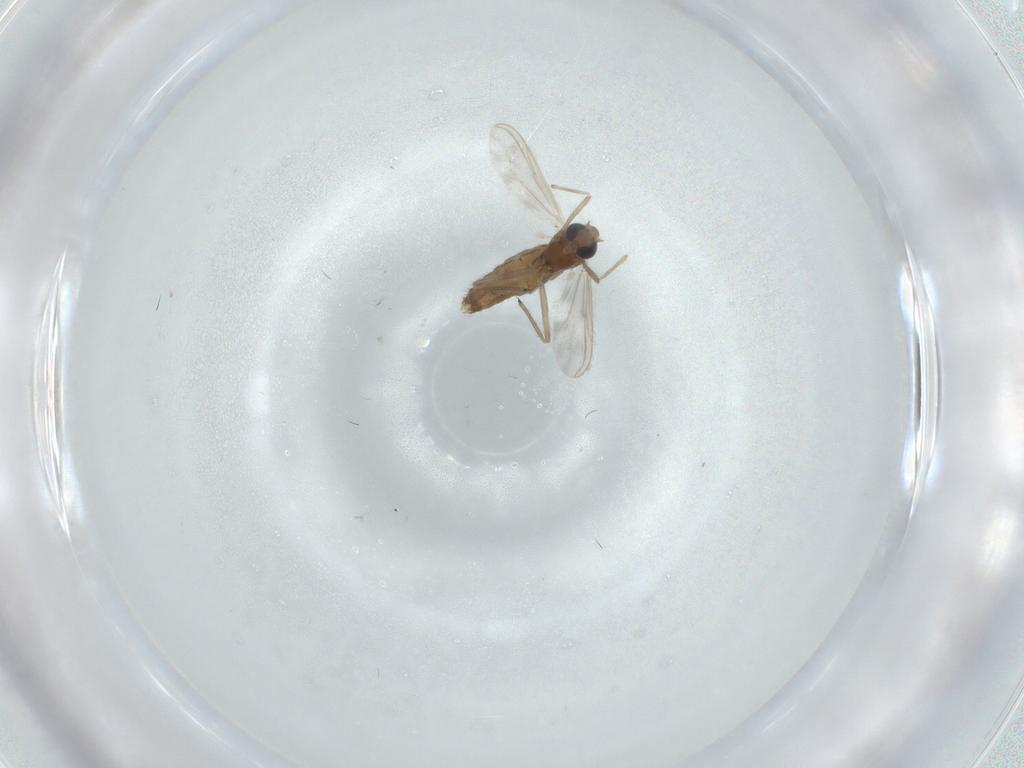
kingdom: Animalia
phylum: Arthropoda
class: Insecta
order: Diptera
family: Chironomidae
